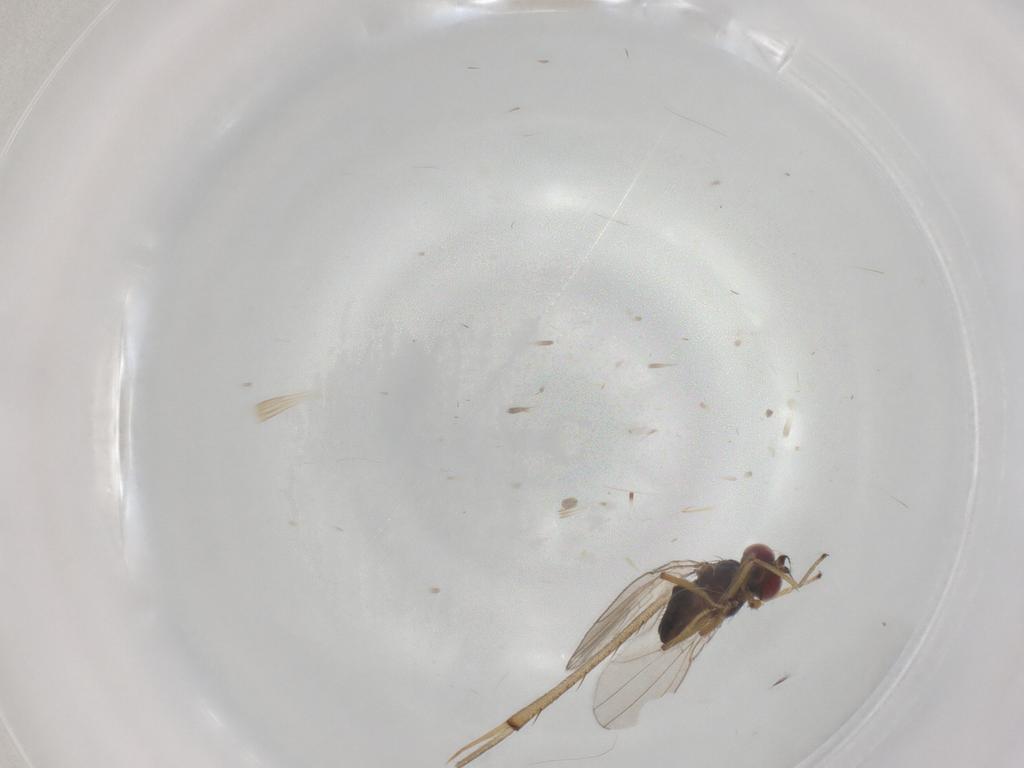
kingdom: Animalia
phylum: Arthropoda
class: Insecta
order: Diptera
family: Ephydridae
